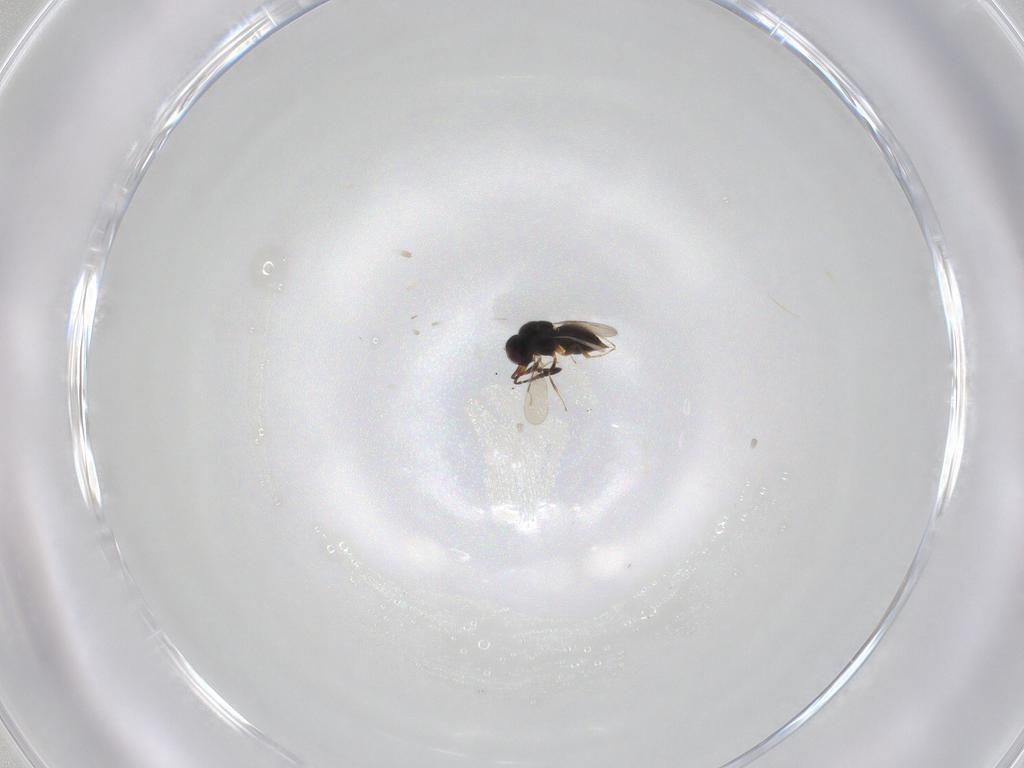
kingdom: Animalia
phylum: Arthropoda
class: Insecta
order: Hymenoptera
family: Ceraphronidae
